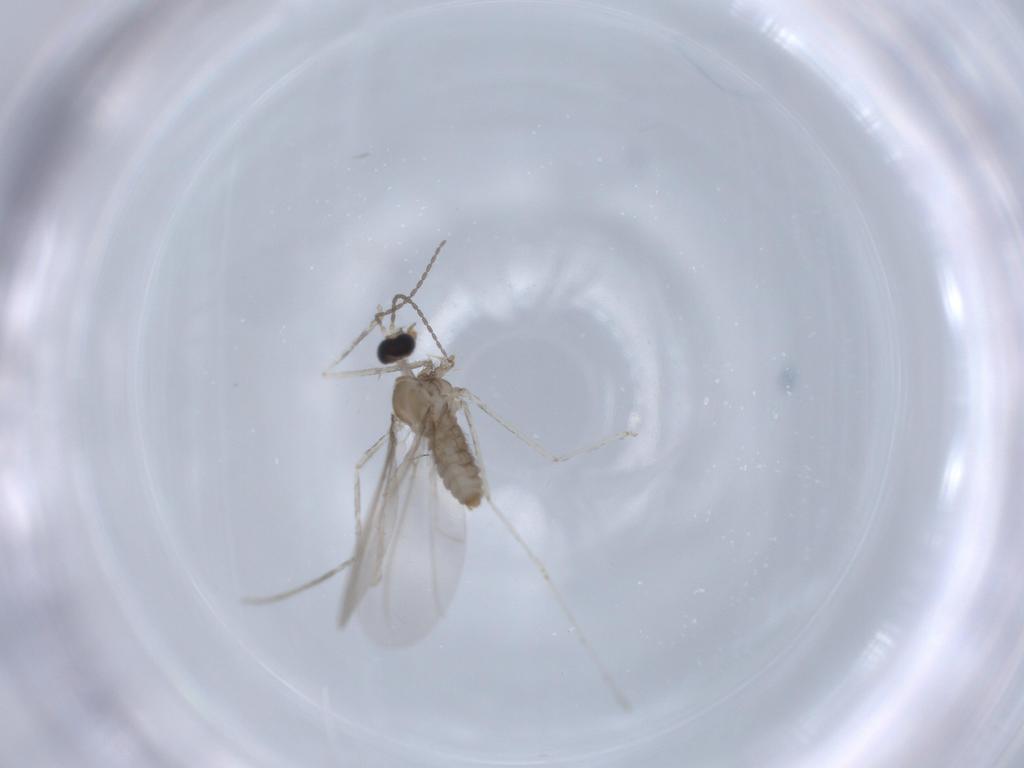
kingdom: Animalia
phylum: Arthropoda
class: Insecta
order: Diptera
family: Cecidomyiidae
